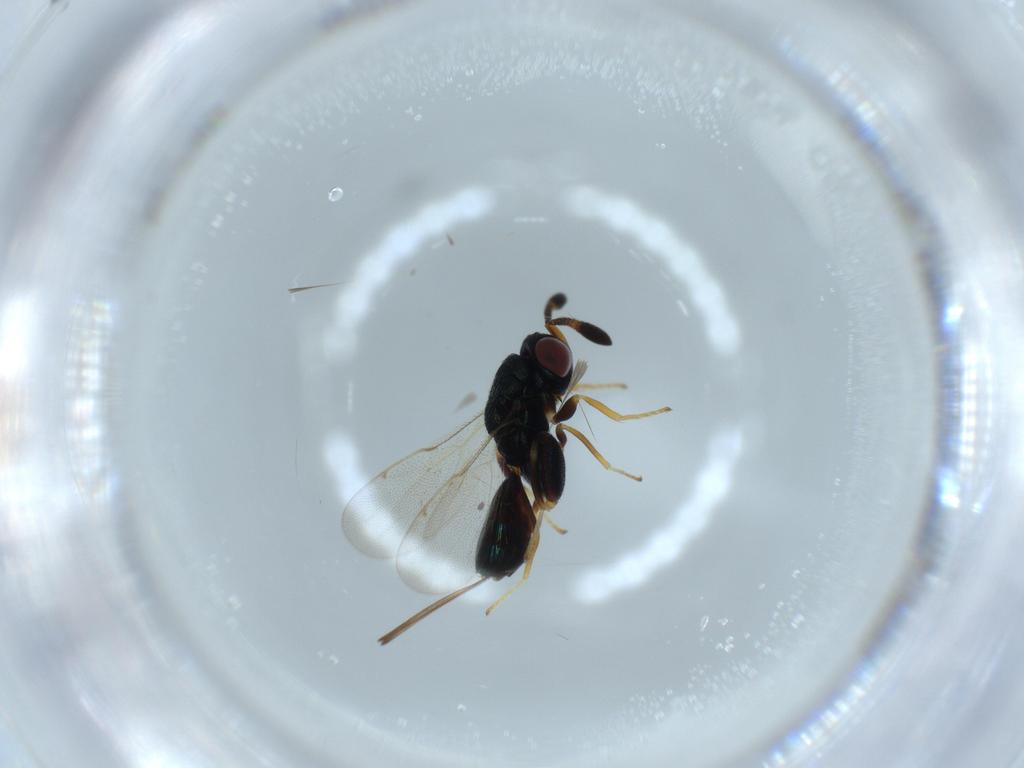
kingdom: Animalia
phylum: Arthropoda
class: Insecta
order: Hymenoptera
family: Torymidae
